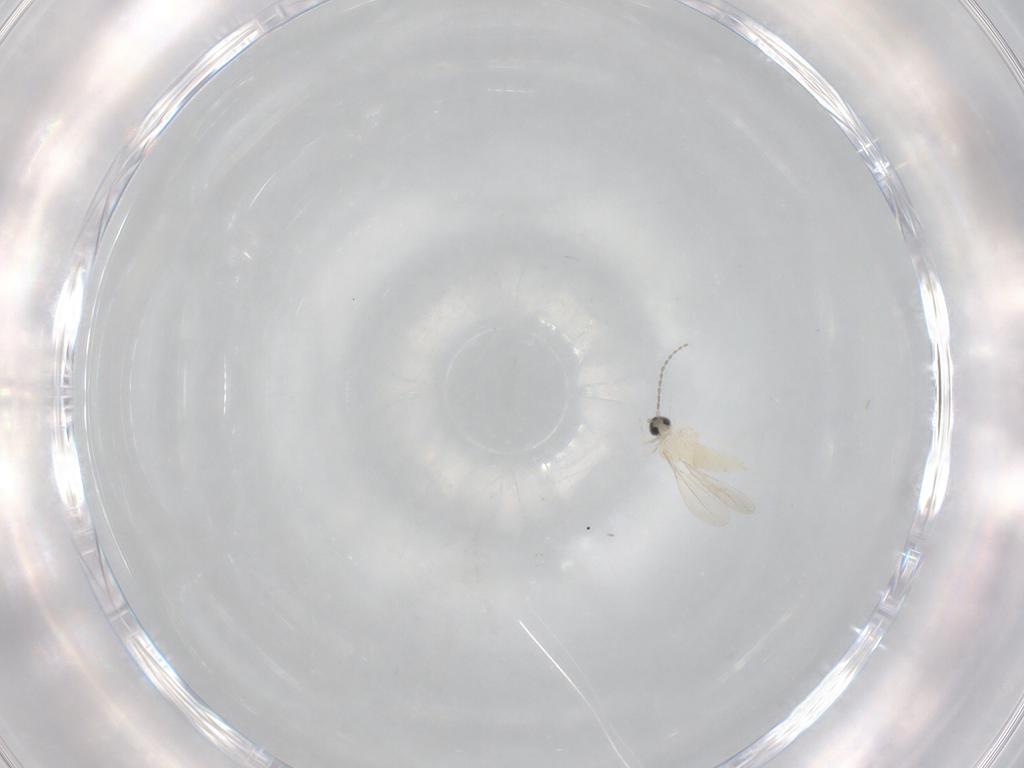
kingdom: Animalia
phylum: Arthropoda
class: Insecta
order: Diptera
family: Cecidomyiidae
